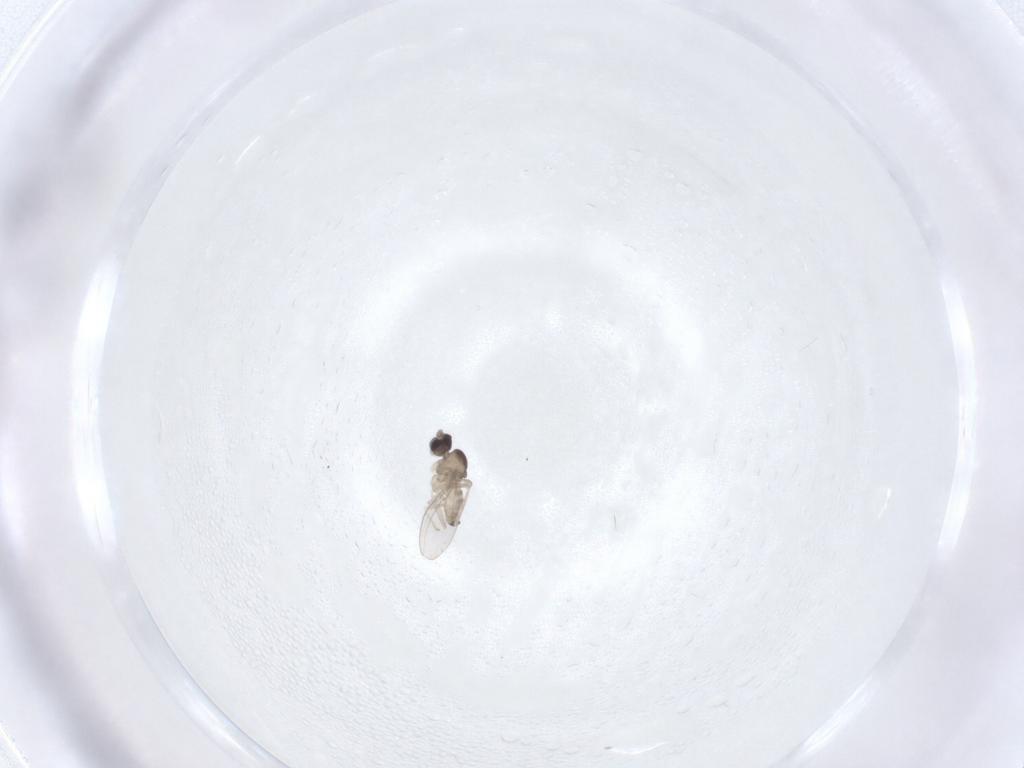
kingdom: Animalia
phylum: Arthropoda
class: Insecta
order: Diptera
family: Cecidomyiidae
